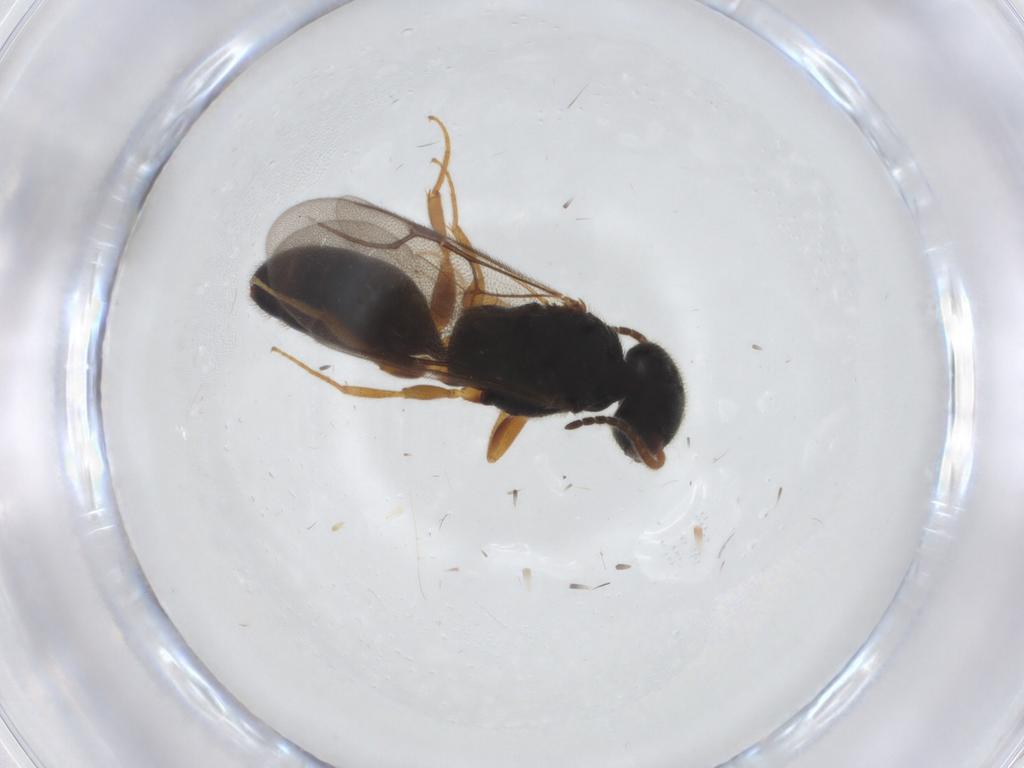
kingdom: Animalia
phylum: Arthropoda
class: Insecta
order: Hymenoptera
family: Bethylidae
